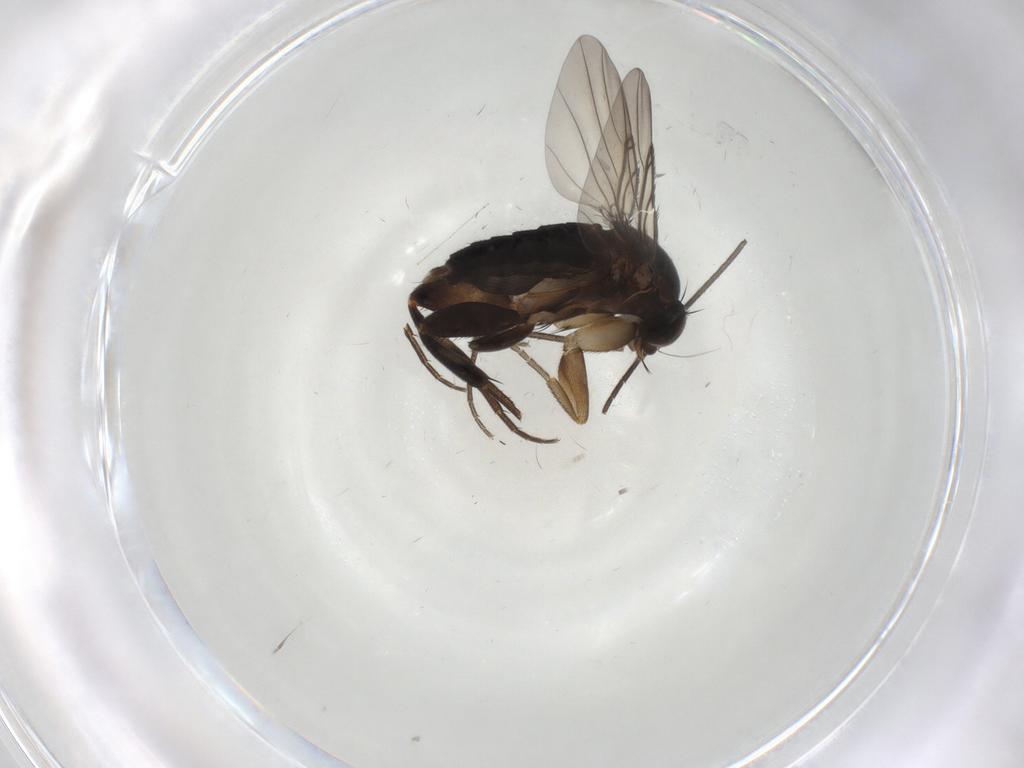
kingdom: Animalia
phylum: Arthropoda
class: Insecta
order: Diptera
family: Phoridae
